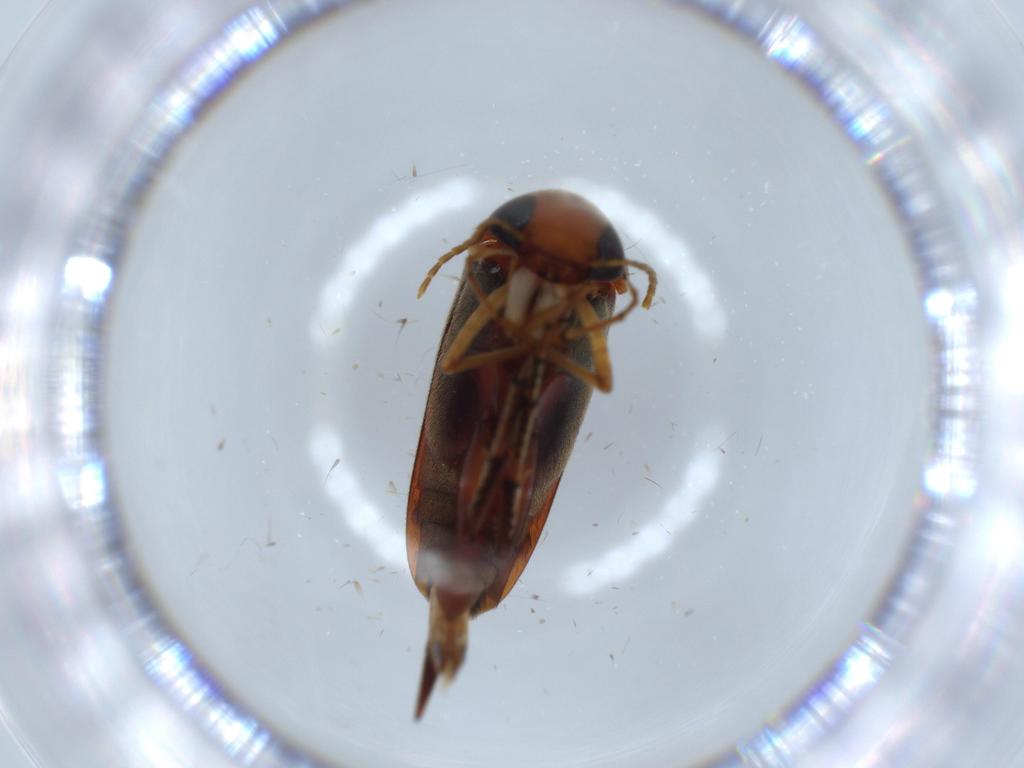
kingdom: Animalia
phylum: Arthropoda
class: Insecta
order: Coleoptera
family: Chrysomelidae
